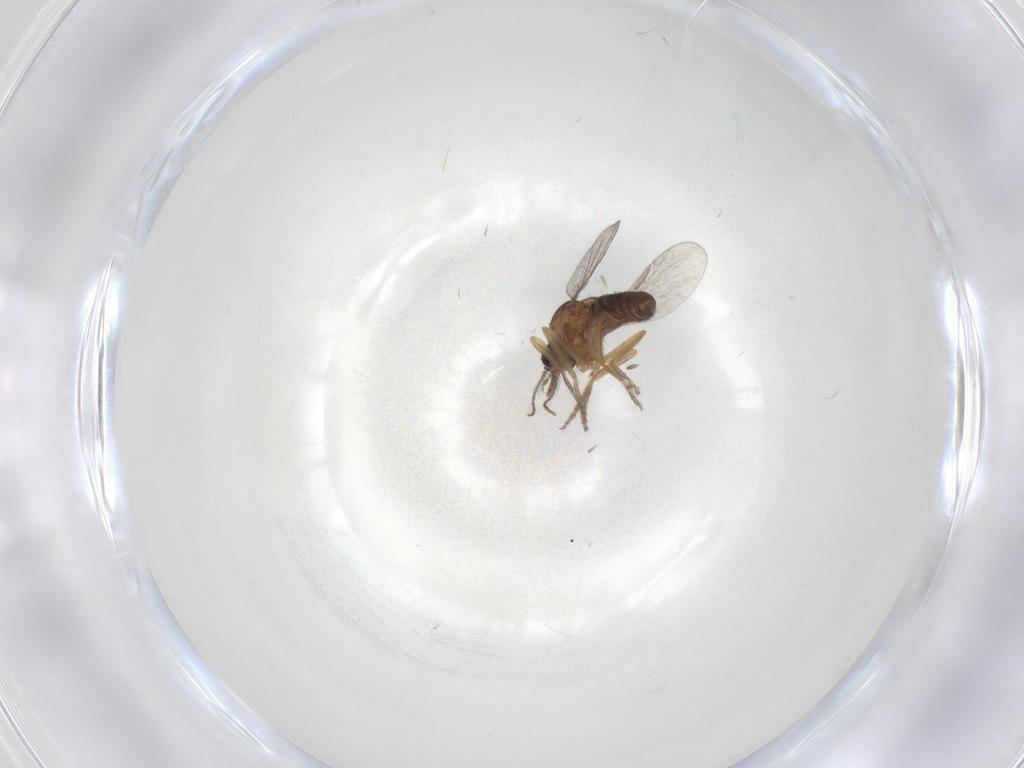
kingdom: Animalia
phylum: Arthropoda
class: Insecta
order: Diptera
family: Ceratopogonidae
